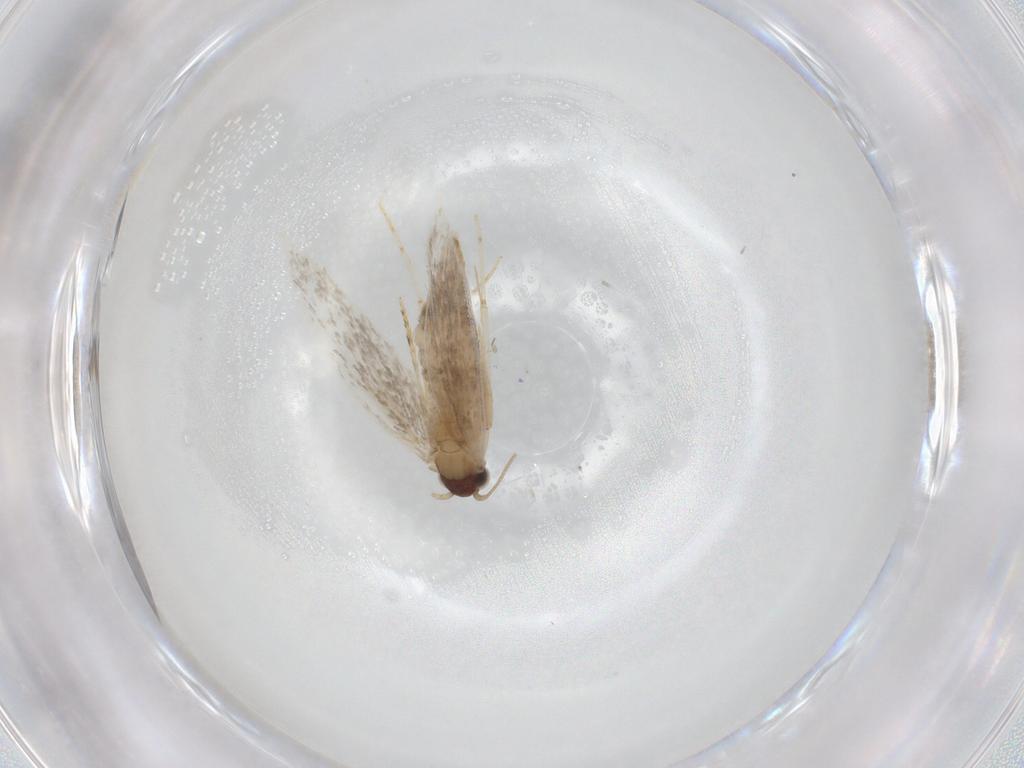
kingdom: Animalia
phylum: Arthropoda
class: Insecta
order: Lepidoptera
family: Tineidae
